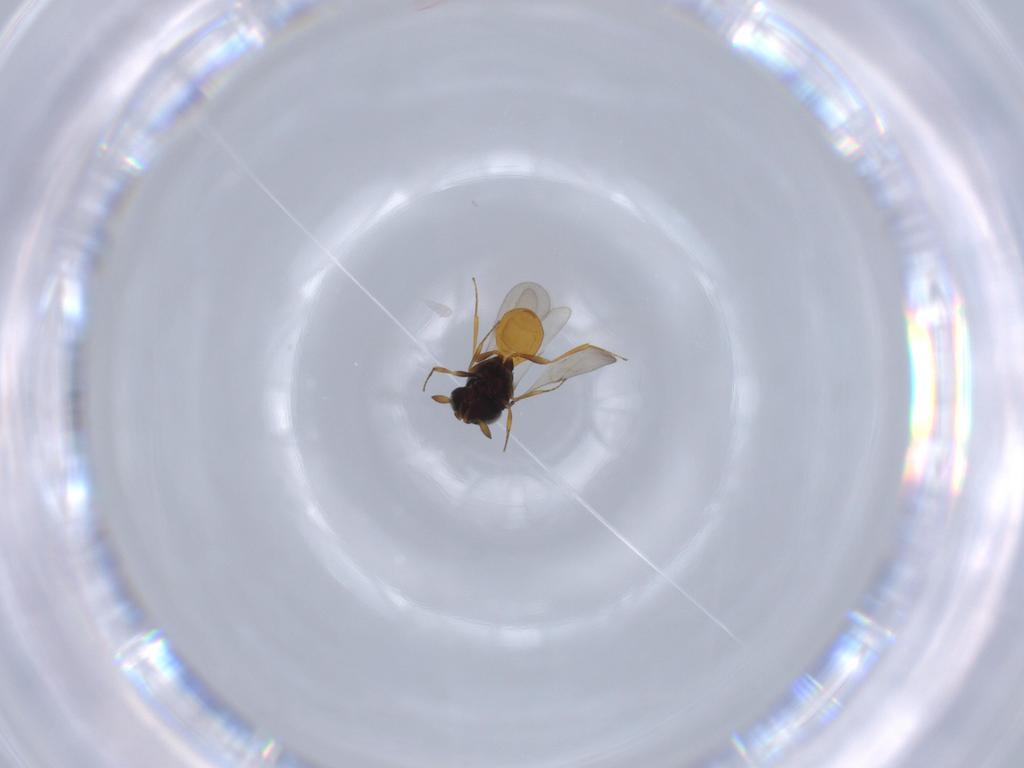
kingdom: Animalia
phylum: Arthropoda
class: Insecta
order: Hymenoptera
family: Scelionidae
